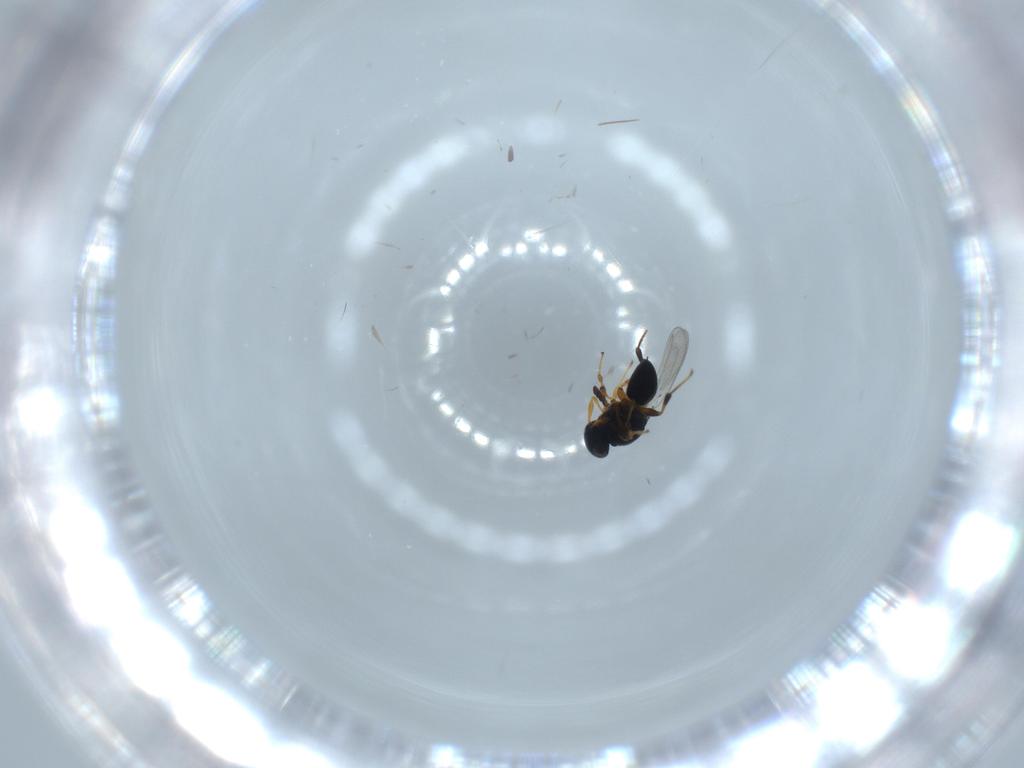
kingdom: Animalia
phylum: Arthropoda
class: Insecta
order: Hymenoptera
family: Platygastridae
